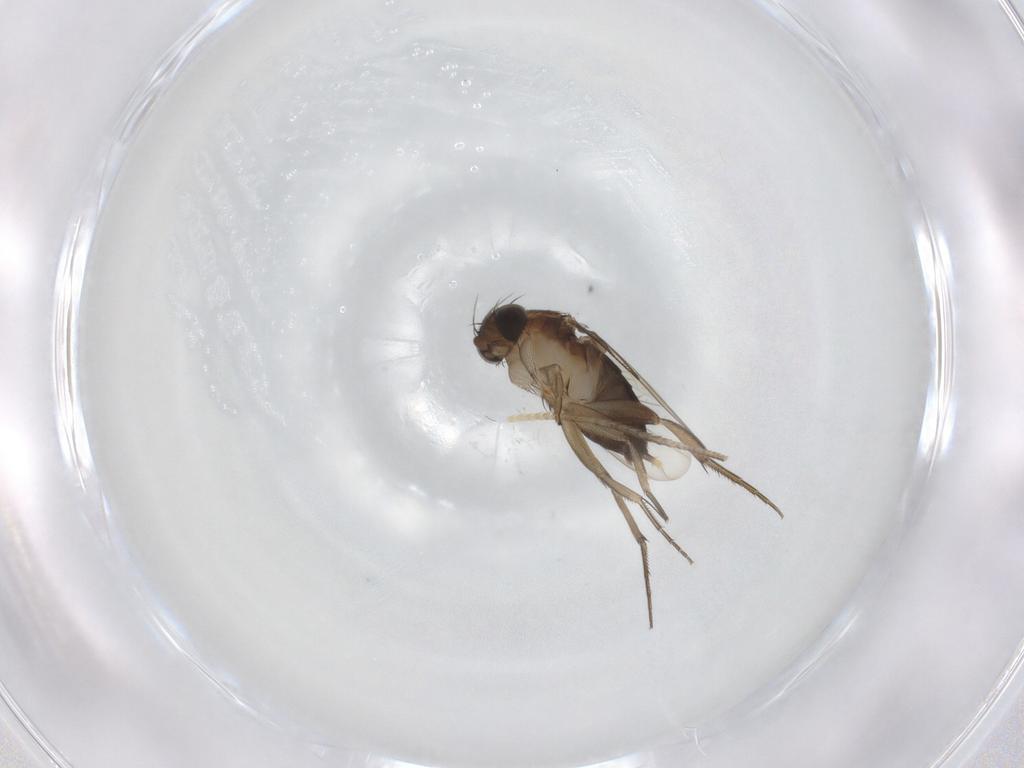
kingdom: Animalia
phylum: Arthropoda
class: Insecta
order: Diptera
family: Phoridae
